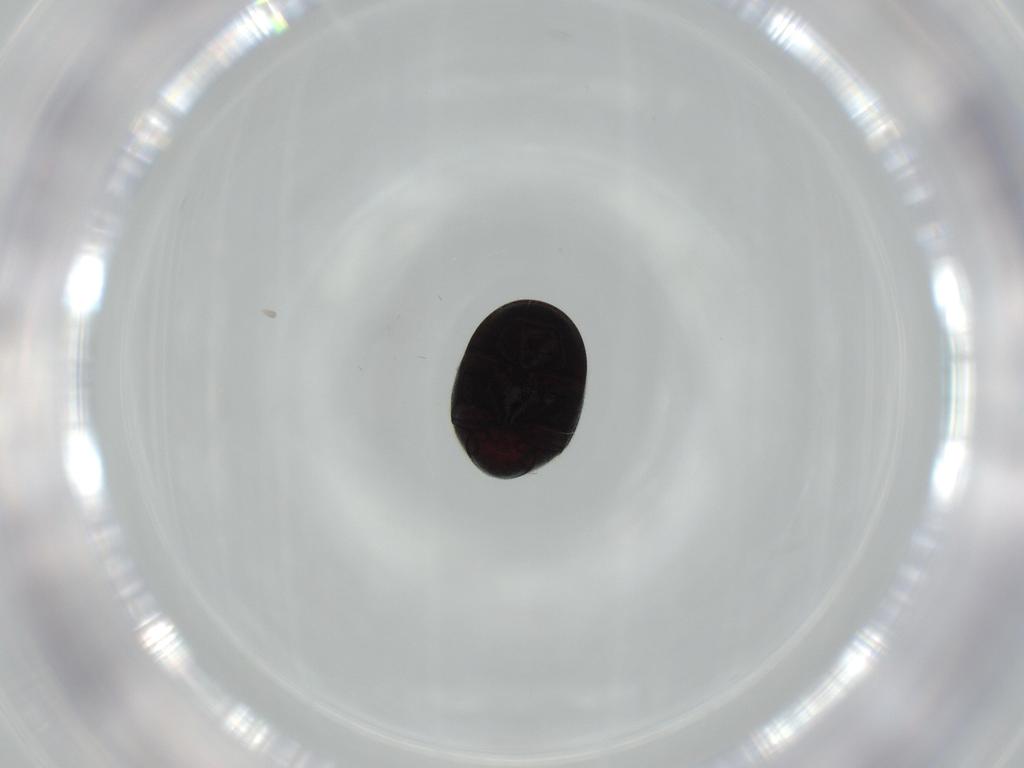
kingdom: Animalia
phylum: Arthropoda
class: Insecta
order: Coleoptera
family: Ptinidae
